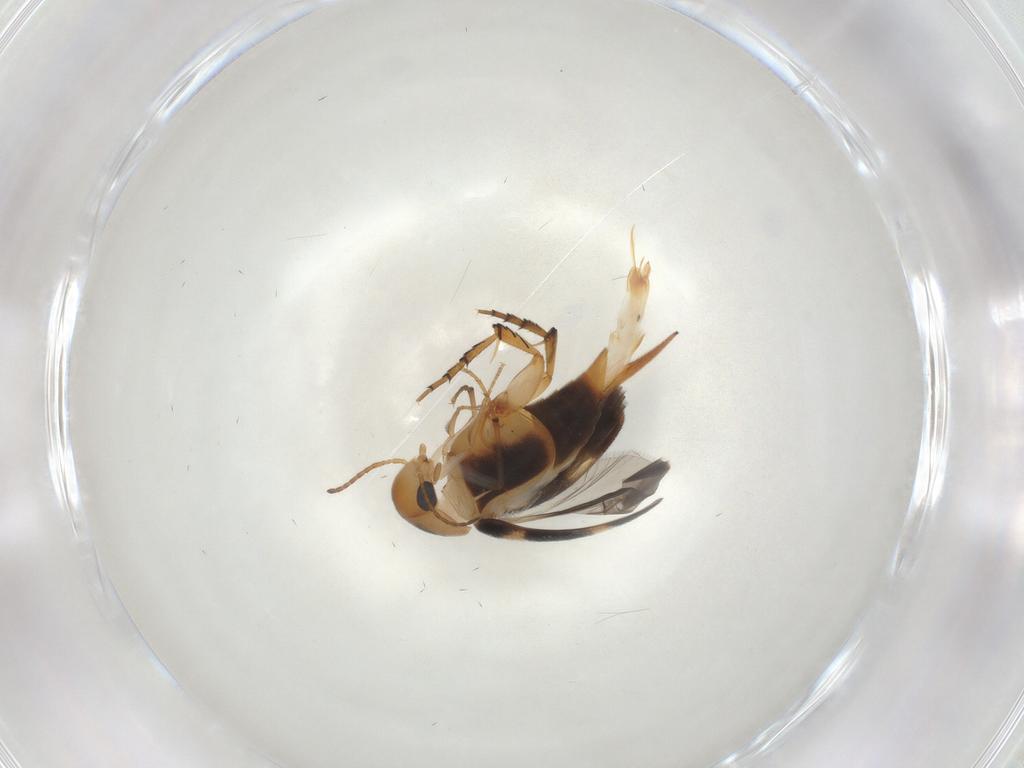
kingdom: Animalia
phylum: Arthropoda
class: Insecta
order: Coleoptera
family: Mordellidae
